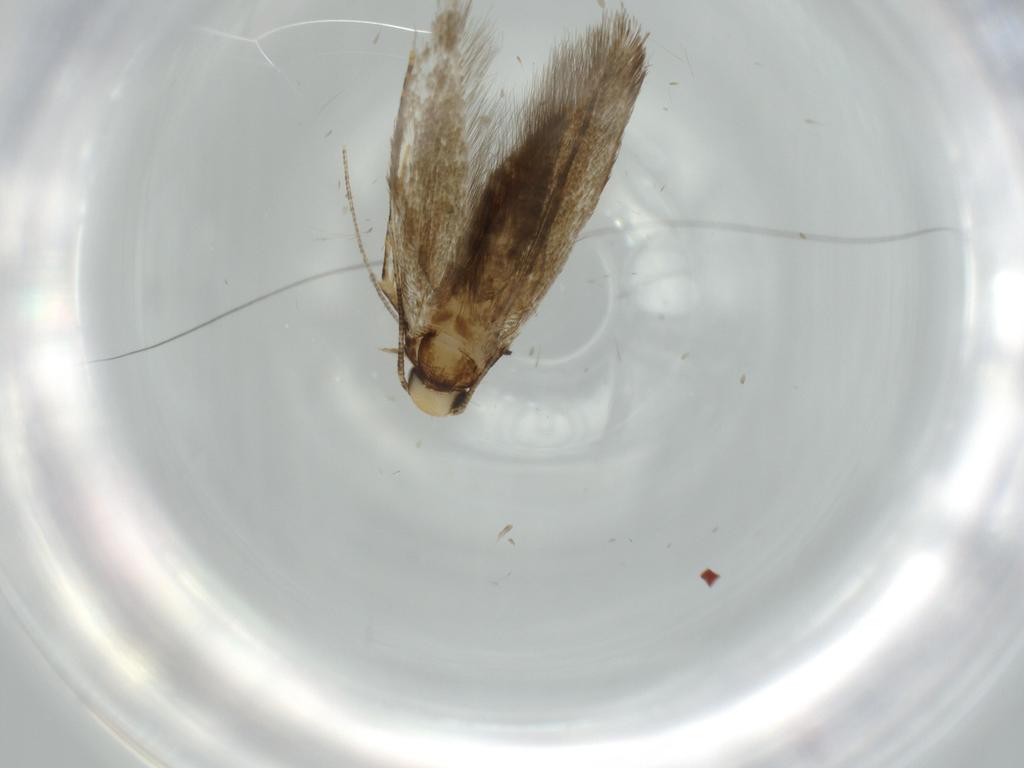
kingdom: Animalia
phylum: Arthropoda
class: Insecta
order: Lepidoptera
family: Tineidae
